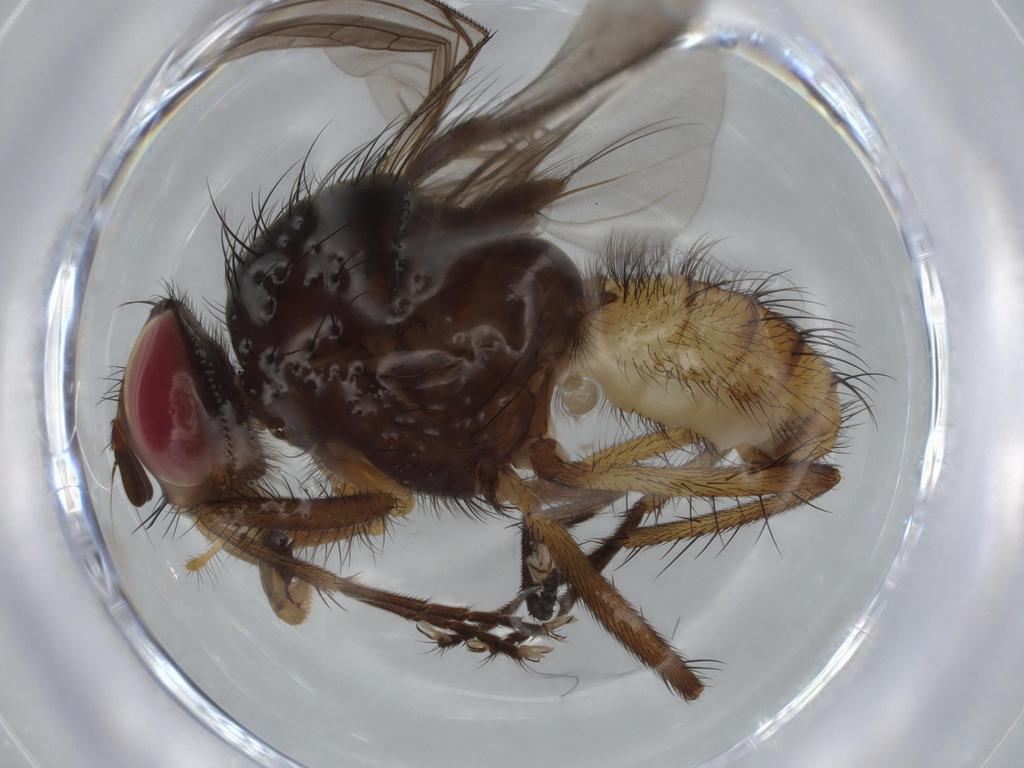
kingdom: Animalia
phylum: Arthropoda
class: Insecta
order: Diptera
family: Anthomyiidae
